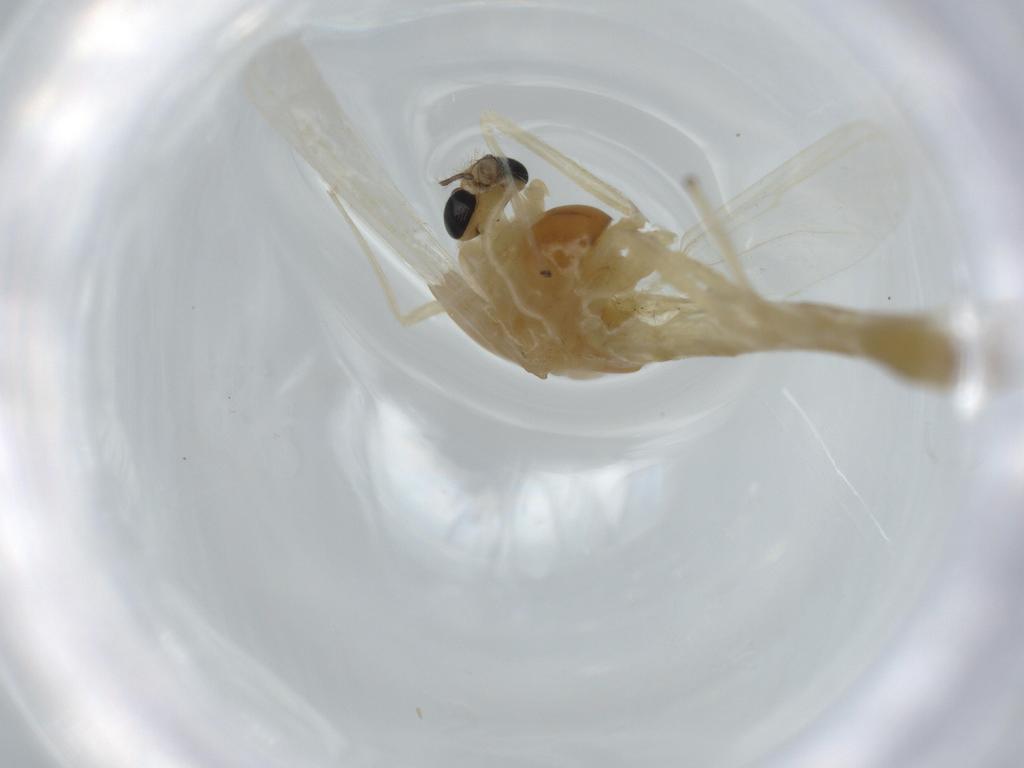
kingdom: Animalia
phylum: Arthropoda
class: Insecta
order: Diptera
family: Chironomidae
